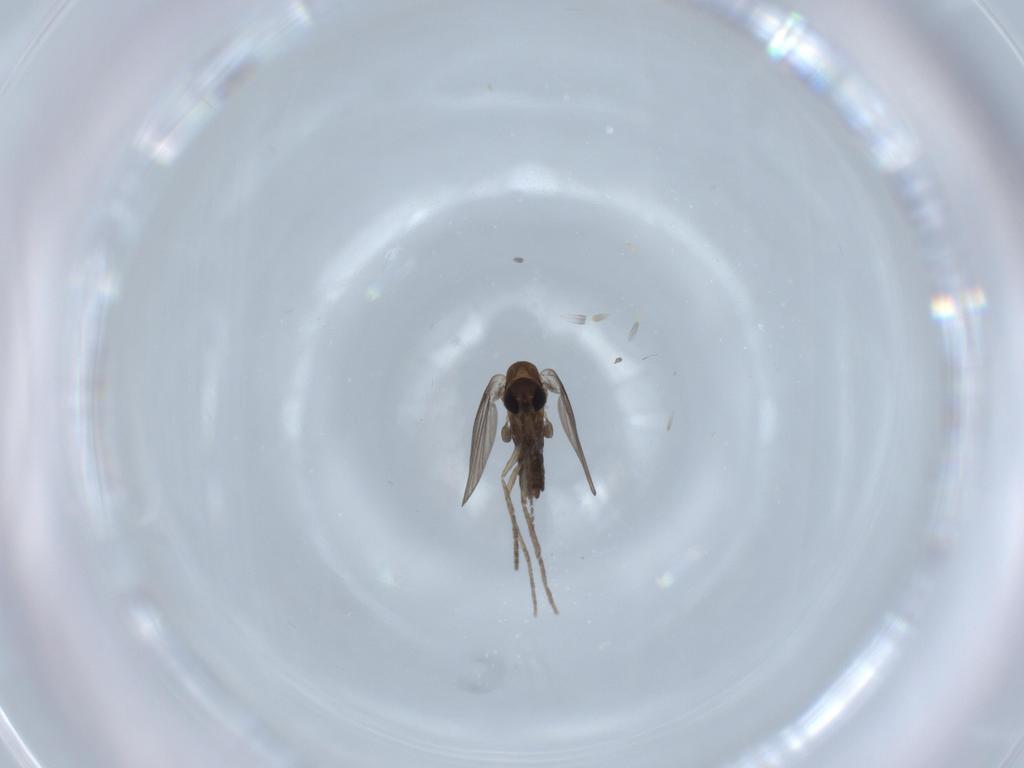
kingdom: Animalia
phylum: Arthropoda
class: Insecta
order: Diptera
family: Psychodidae
